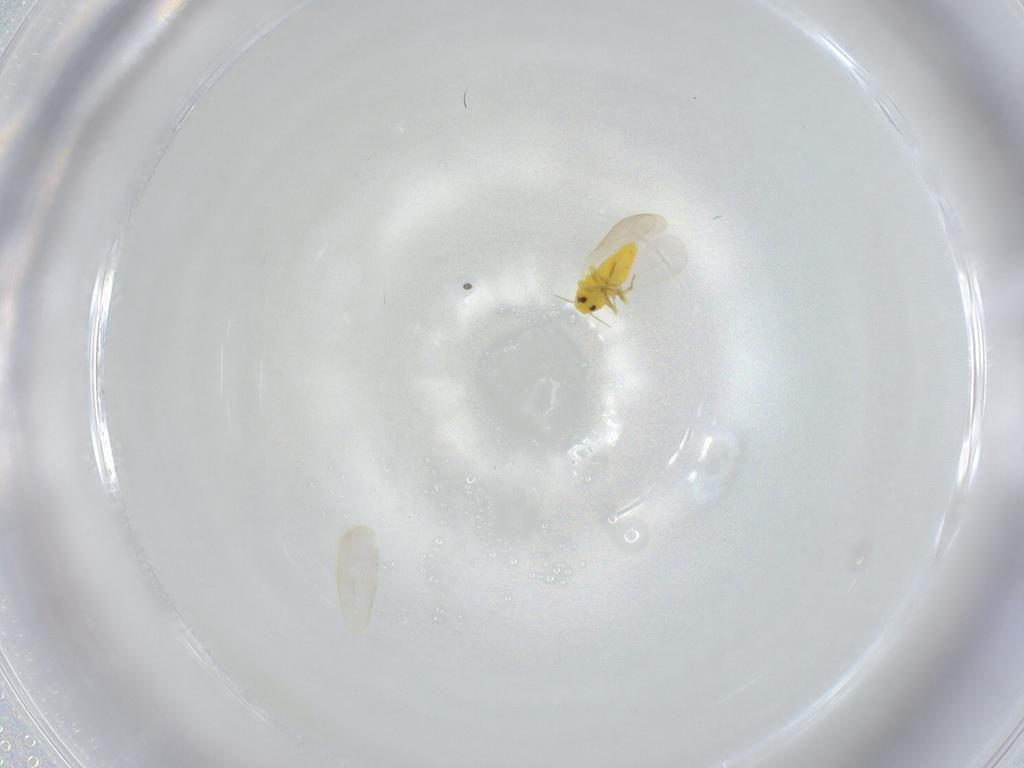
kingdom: Animalia
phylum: Arthropoda
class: Insecta
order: Hemiptera
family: Aleyrodidae
